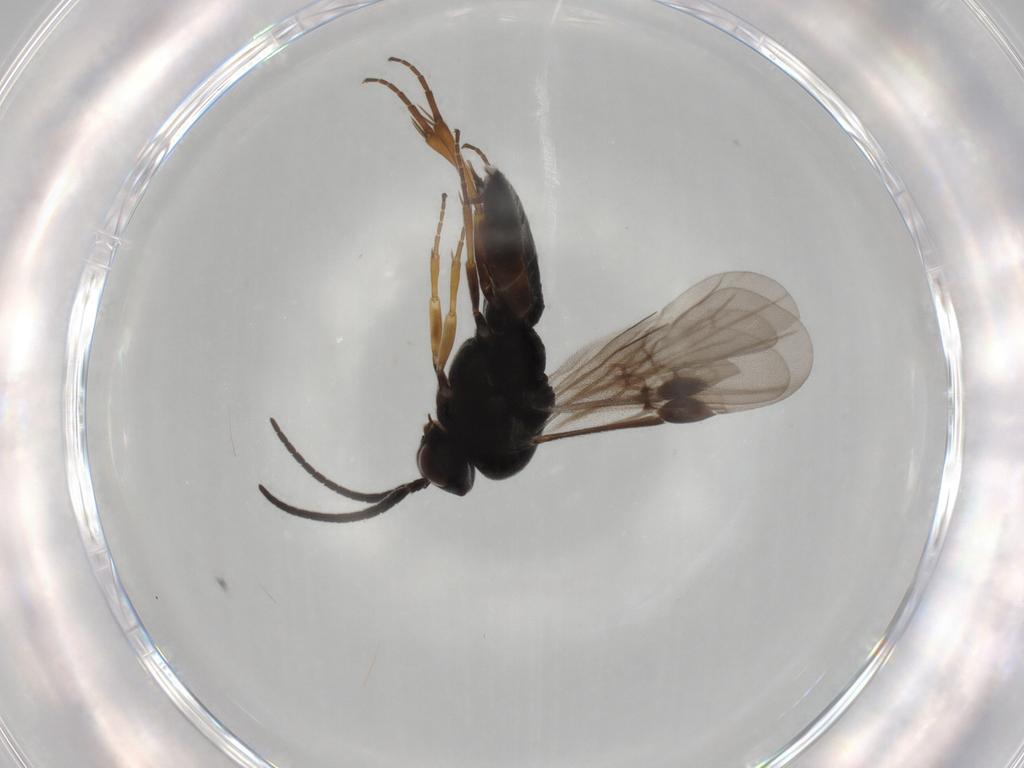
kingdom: Animalia
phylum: Arthropoda
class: Insecta
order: Hymenoptera
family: Braconidae
